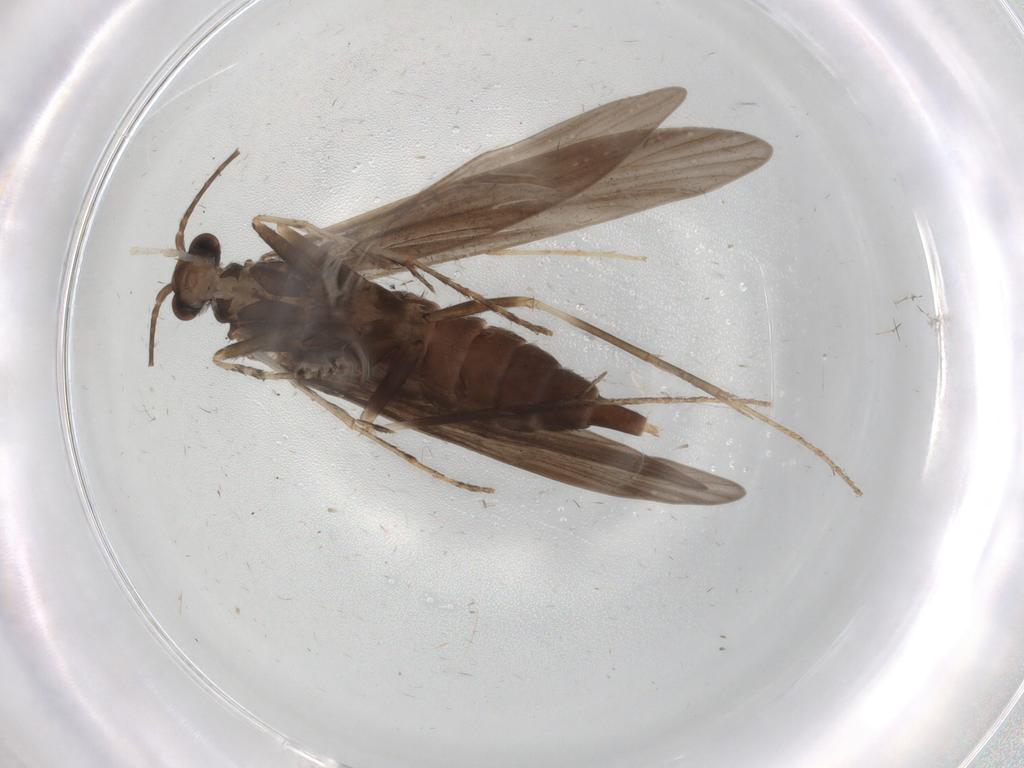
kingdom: Animalia
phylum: Arthropoda
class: Insecta
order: Trichoptera
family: Xiphocentronidae
